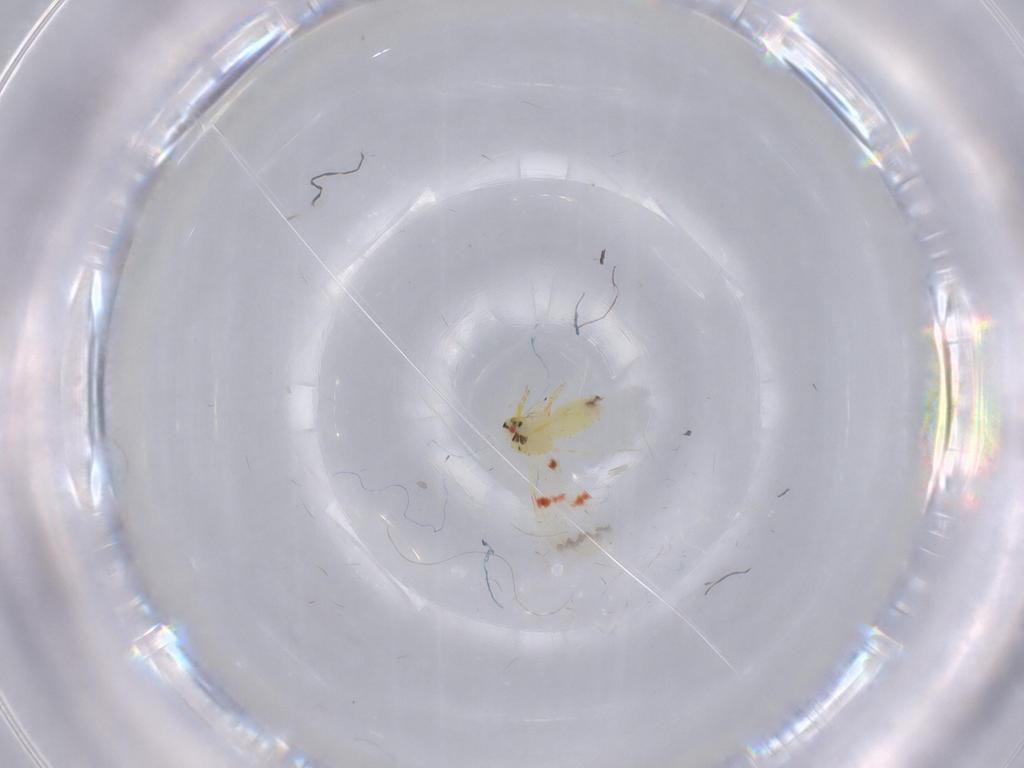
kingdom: Animalia
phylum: Arthropoda
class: Insecta
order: Hemiptera
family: Aleyrodidae
